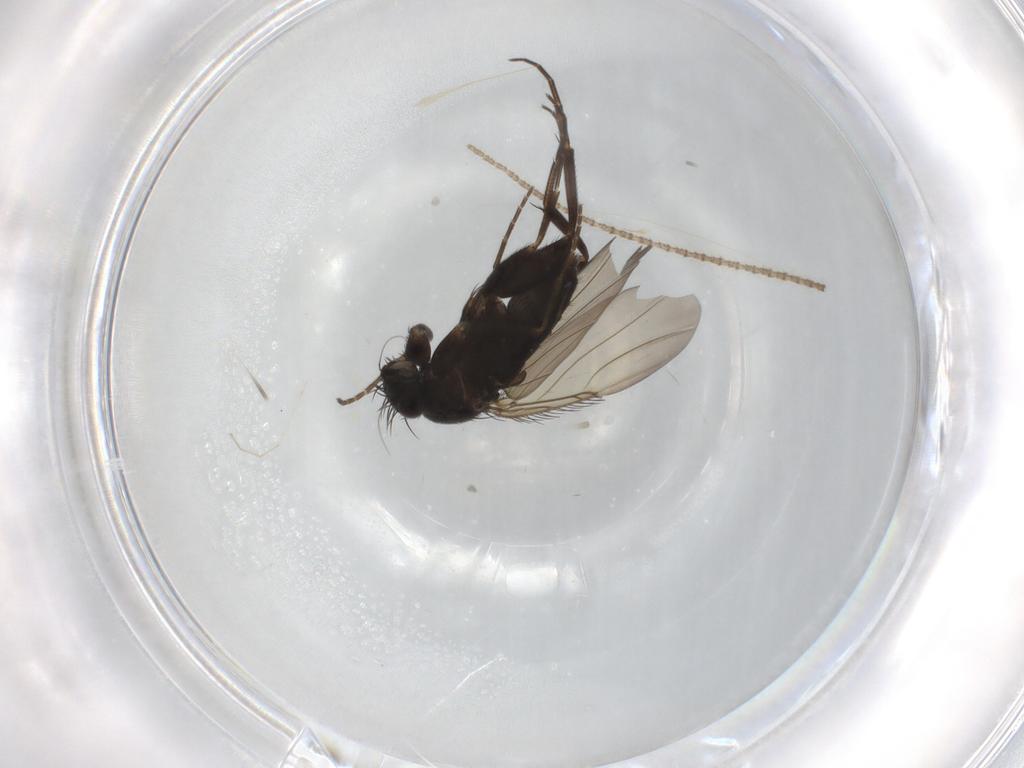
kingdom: Animalia
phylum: Arthropoda
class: Insecta
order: Diptera
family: Phoridae
